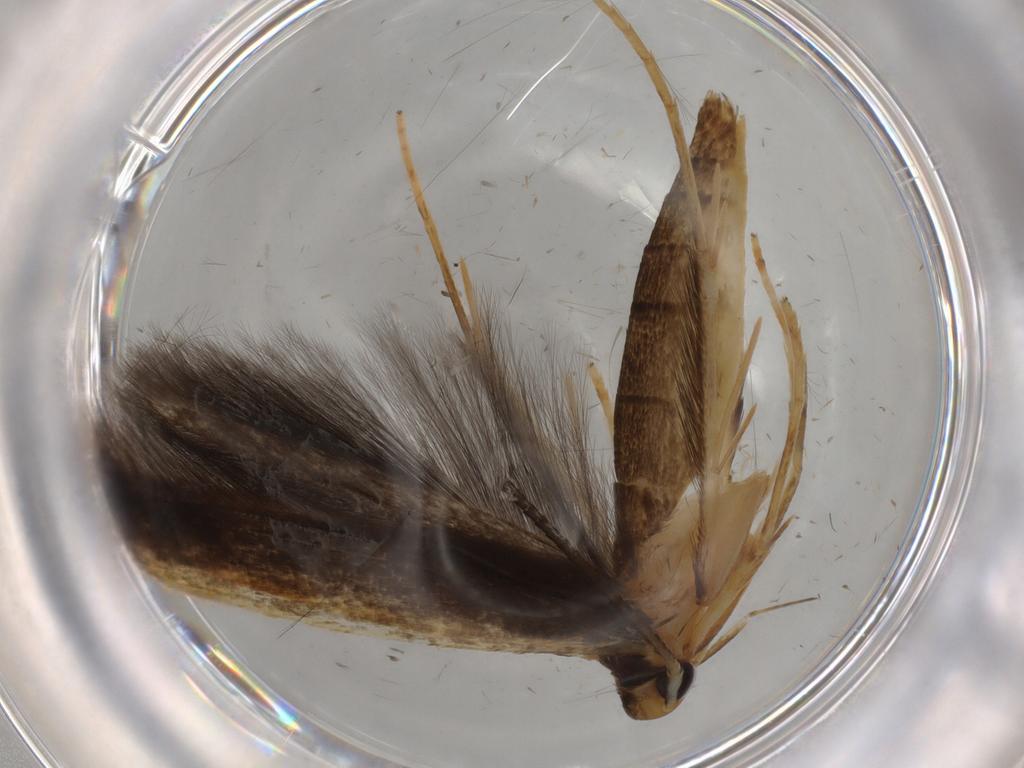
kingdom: Animalia
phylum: Arthropoda
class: Insecta
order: Lepidoptera
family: Pterolonchidae
